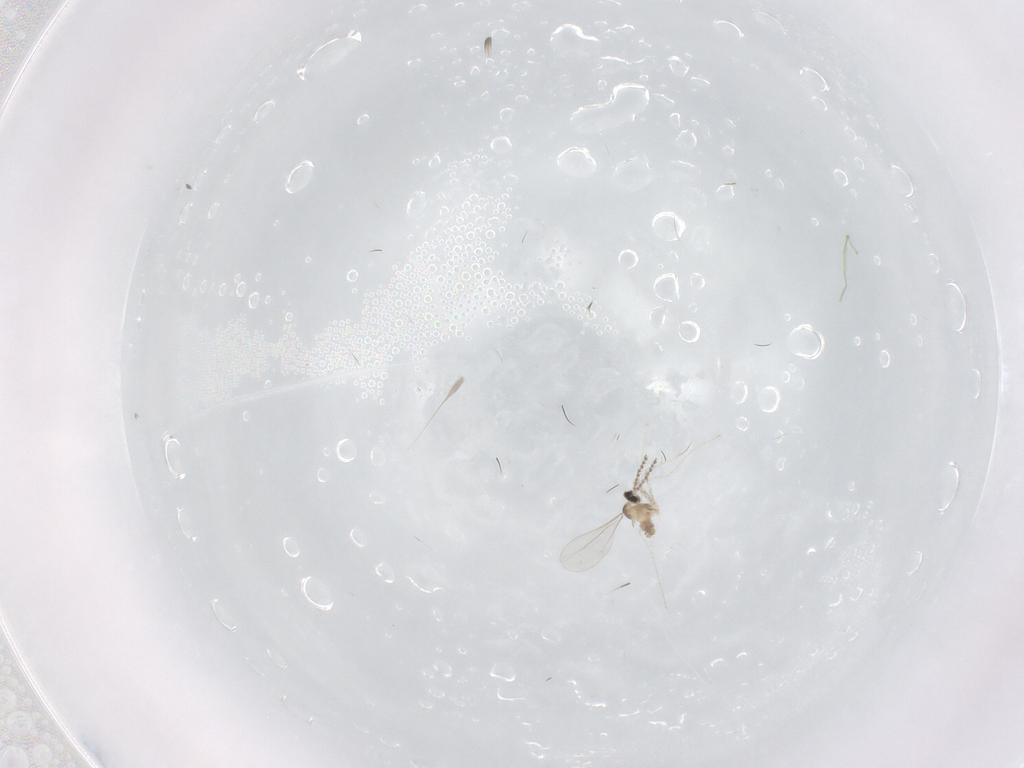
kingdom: Animalia
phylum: Arthropoda
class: Insecta
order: Diptera
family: Cecidomyiidae
